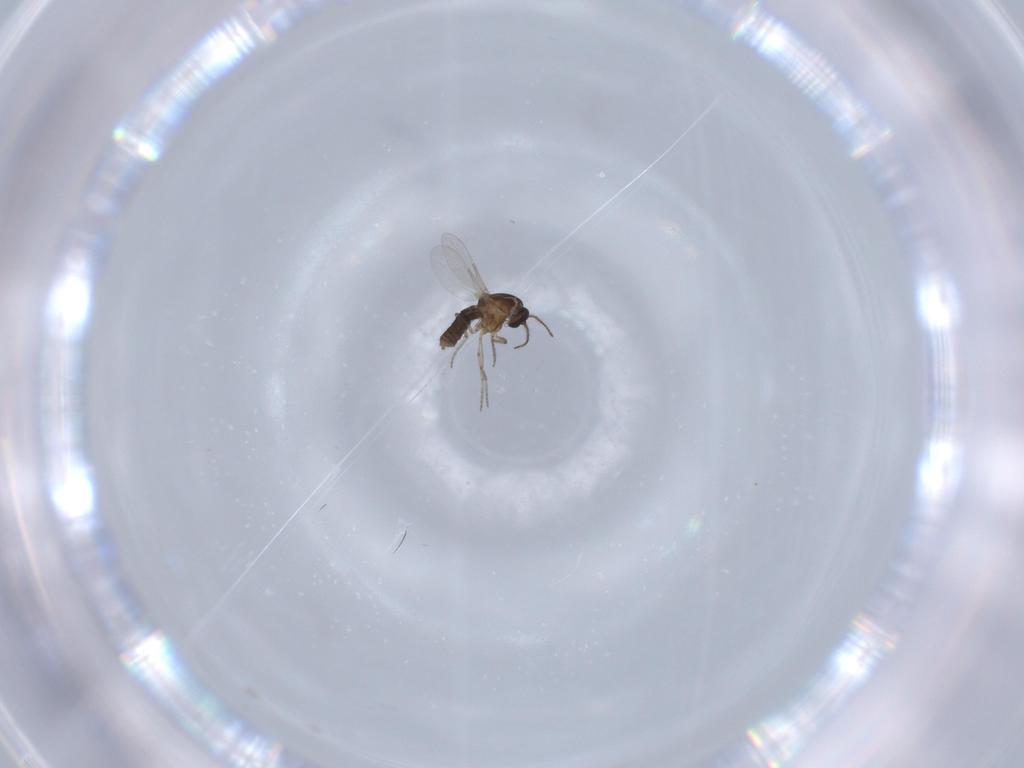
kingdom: Animalia
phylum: Arthropoda
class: Insecta
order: Diptera
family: Ceratopogonidae
